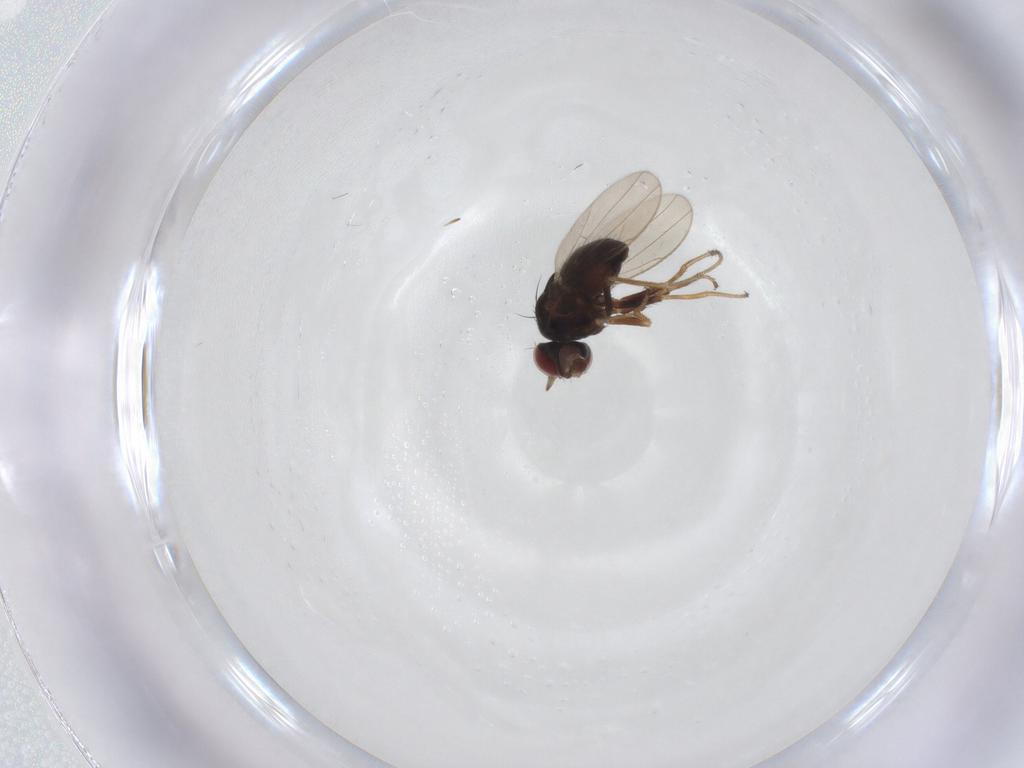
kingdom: Animalia
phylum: Arthropoda
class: Insecta
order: Diptera
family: Ephydridae
